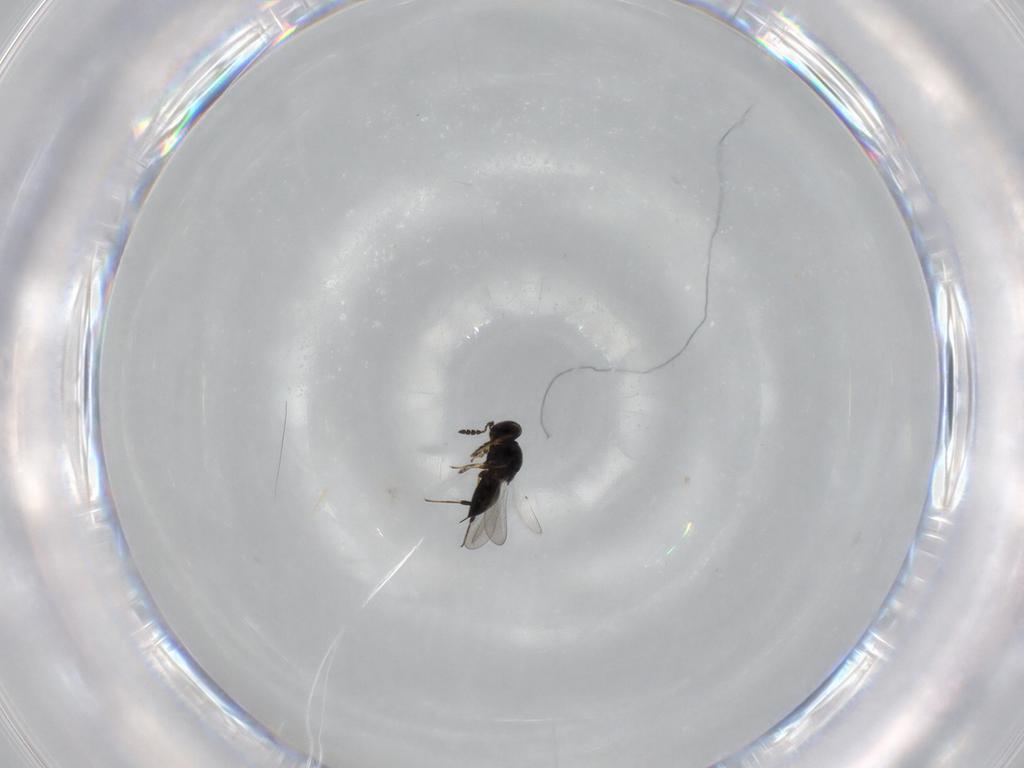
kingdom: Animalia
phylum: Arthropoda
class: Insecta
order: Hymenoptera
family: Platygastridae
